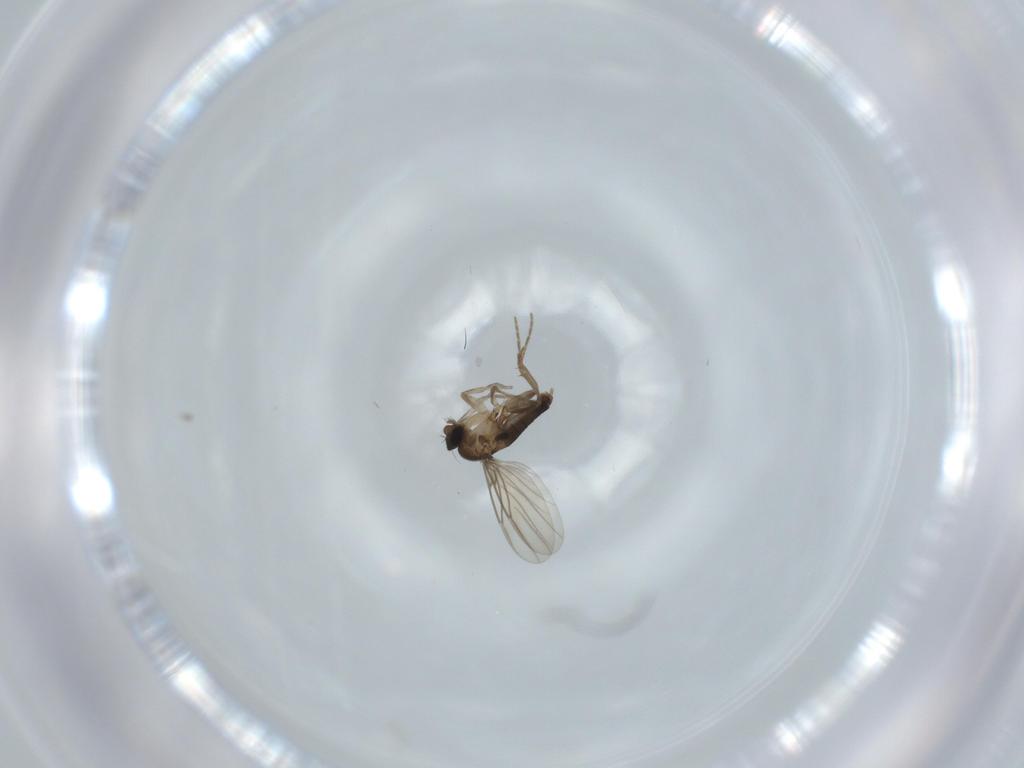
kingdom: Animalia
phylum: Arthropoda
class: Insecta
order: Diptera
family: Phoridae
